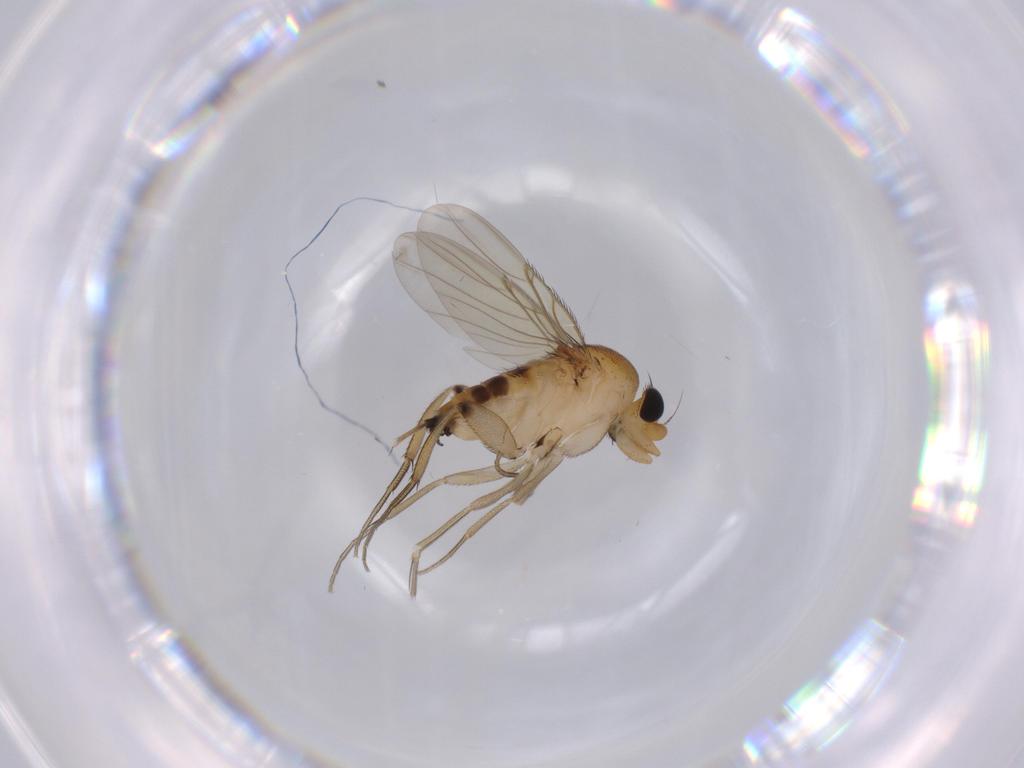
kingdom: Animalia
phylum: Arthropoda
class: Insecta
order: Diptera
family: Phoridae
